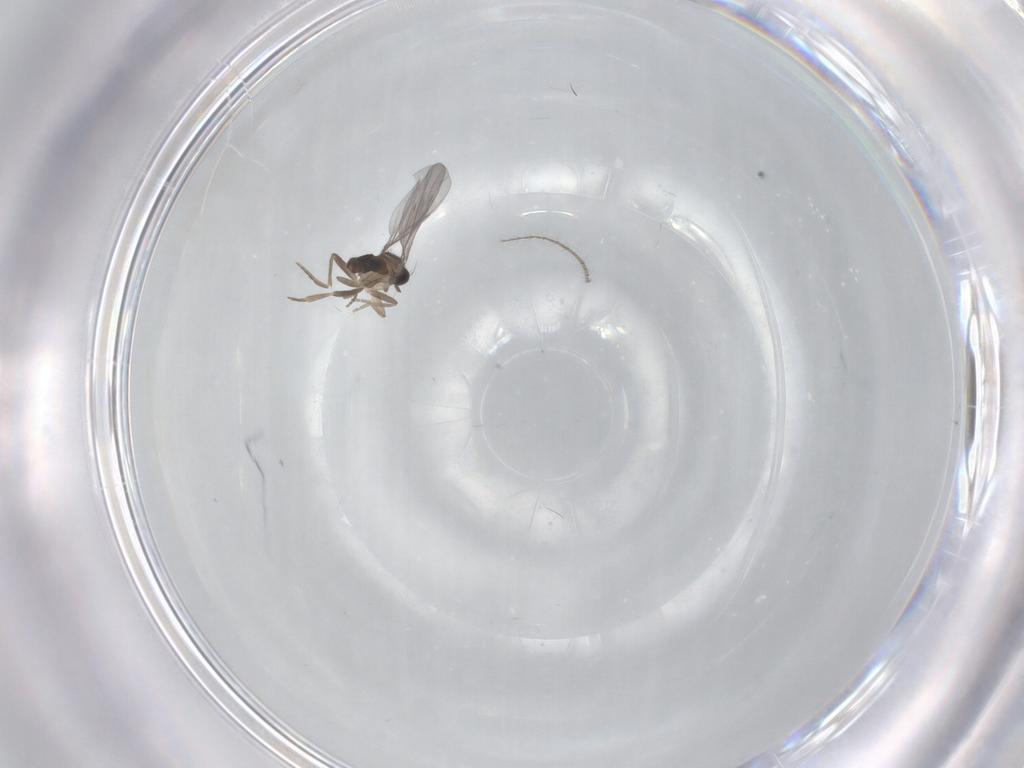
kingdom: Animalia
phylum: Arthropoda
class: Insecta
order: Diptera
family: Cecidomyiidae
